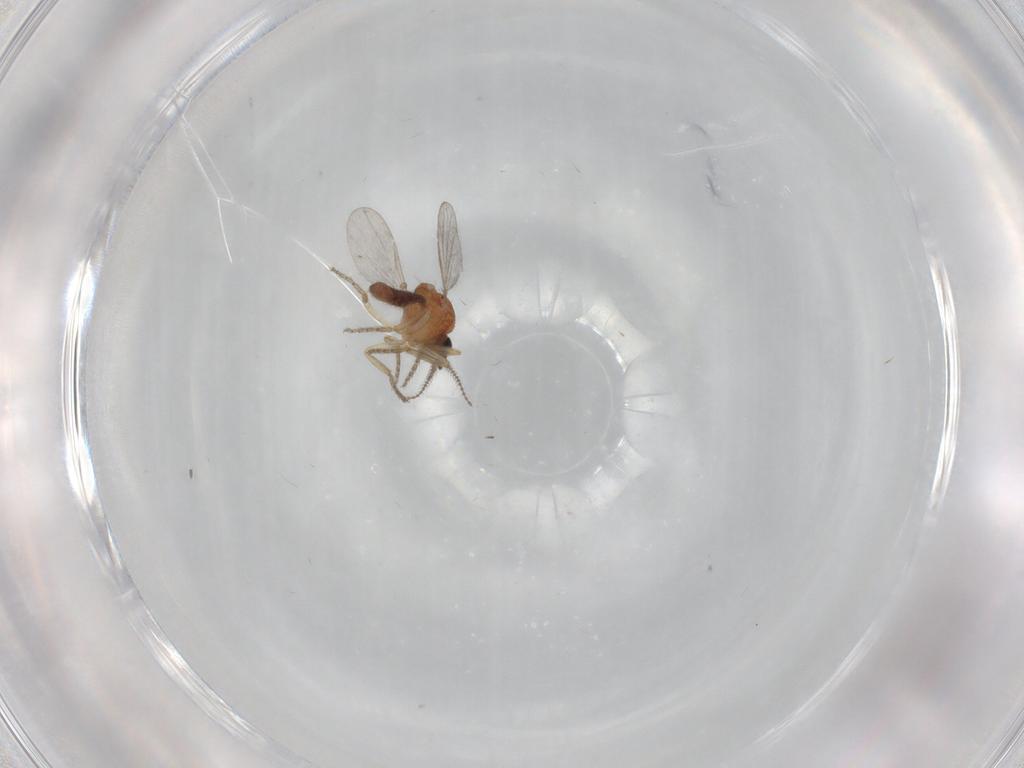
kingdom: Animalia
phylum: Arthropoda
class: Insecta
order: Diptera
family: Ceratopogonidae
